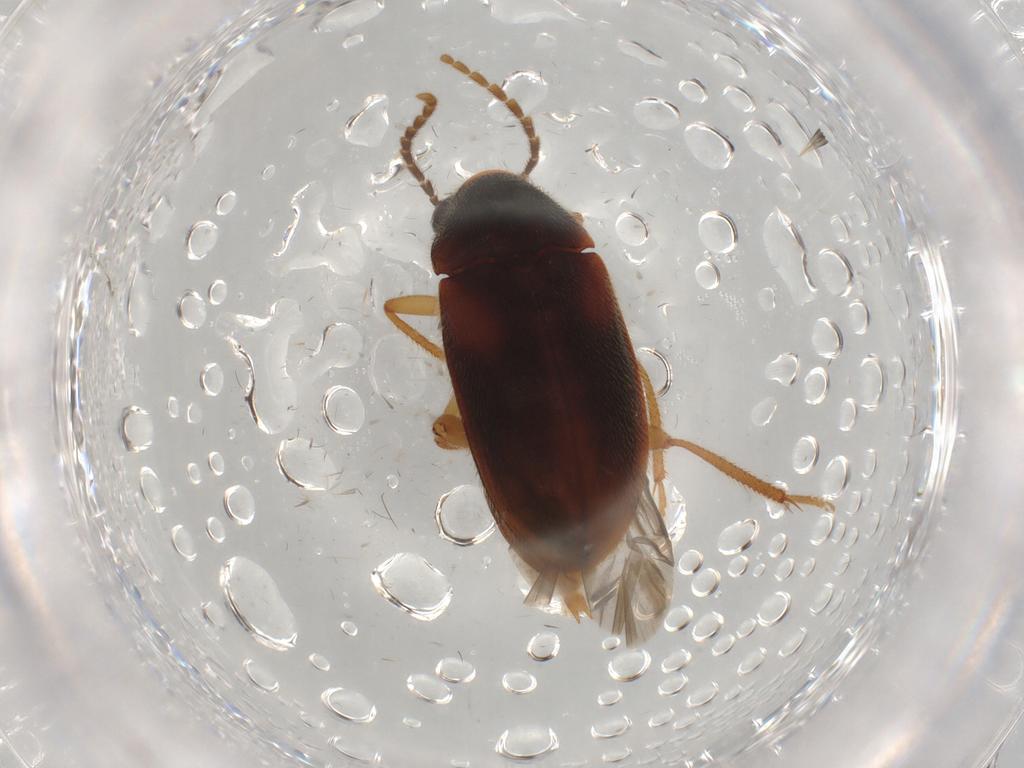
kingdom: Animalia
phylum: Arthropoda
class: Insecta
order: Coleoptera
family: Ptilodactylidae
